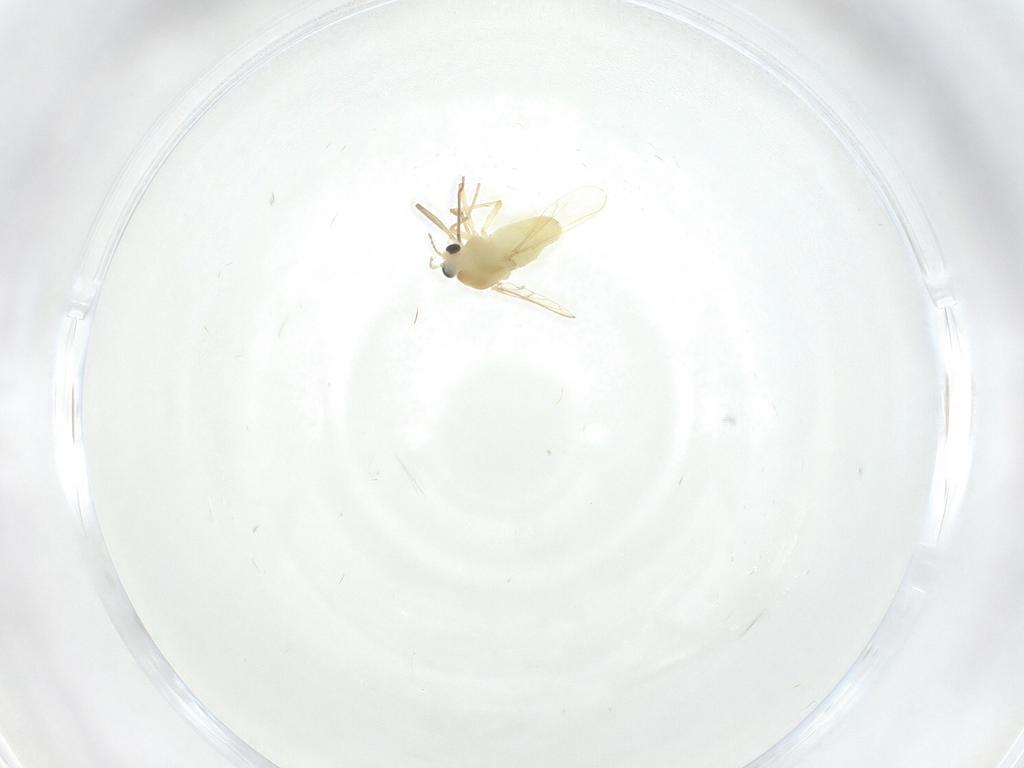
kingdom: Animalia
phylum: Arthropoda
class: Insecta
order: Diptera
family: Chironomidae
